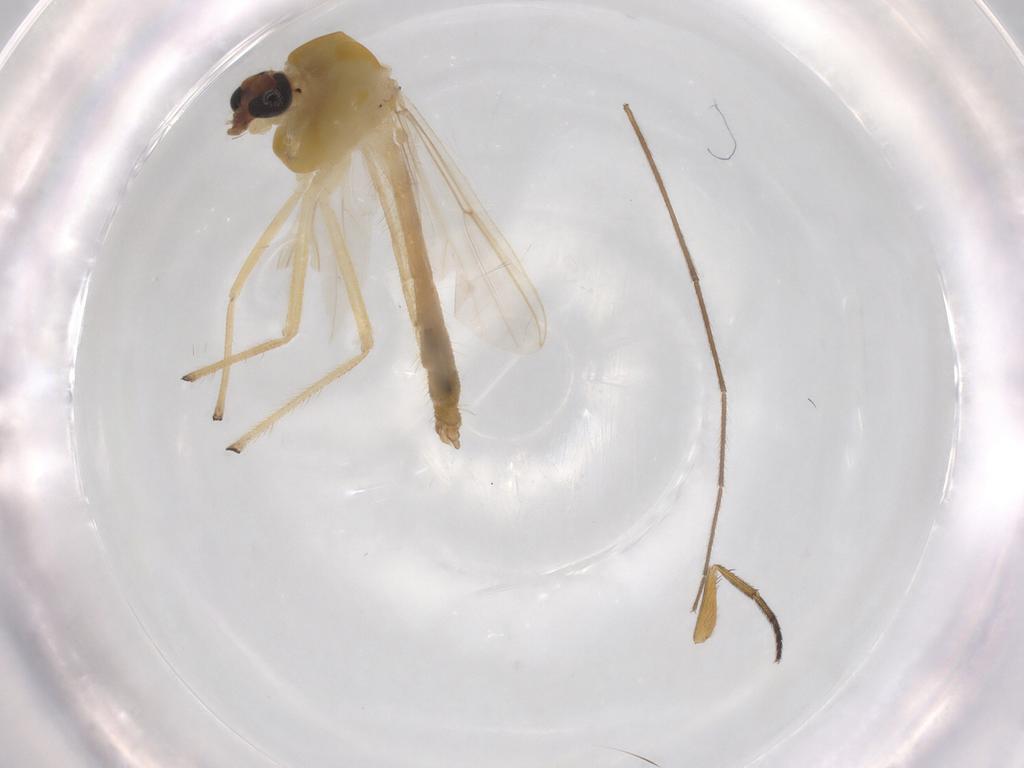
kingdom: Animalia
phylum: Arthropoda
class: Insecta
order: Diptera
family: Chironomidae
